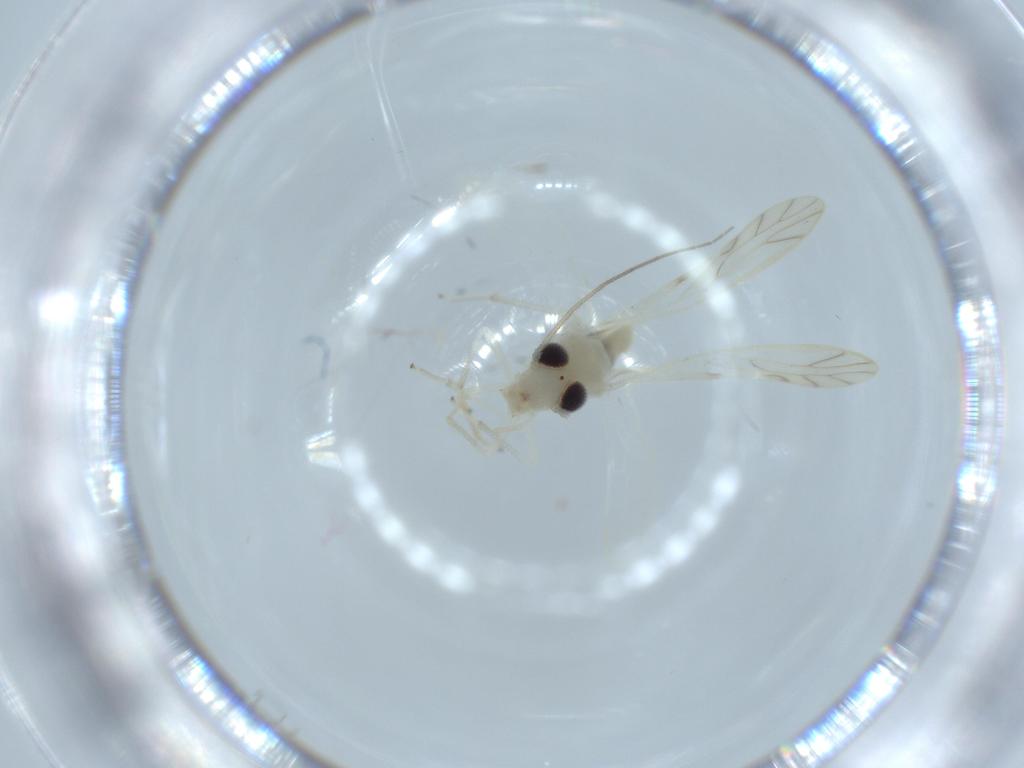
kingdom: Animalia
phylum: Arthropoda
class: Insecta
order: Psocodea
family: Caeciliusidae
